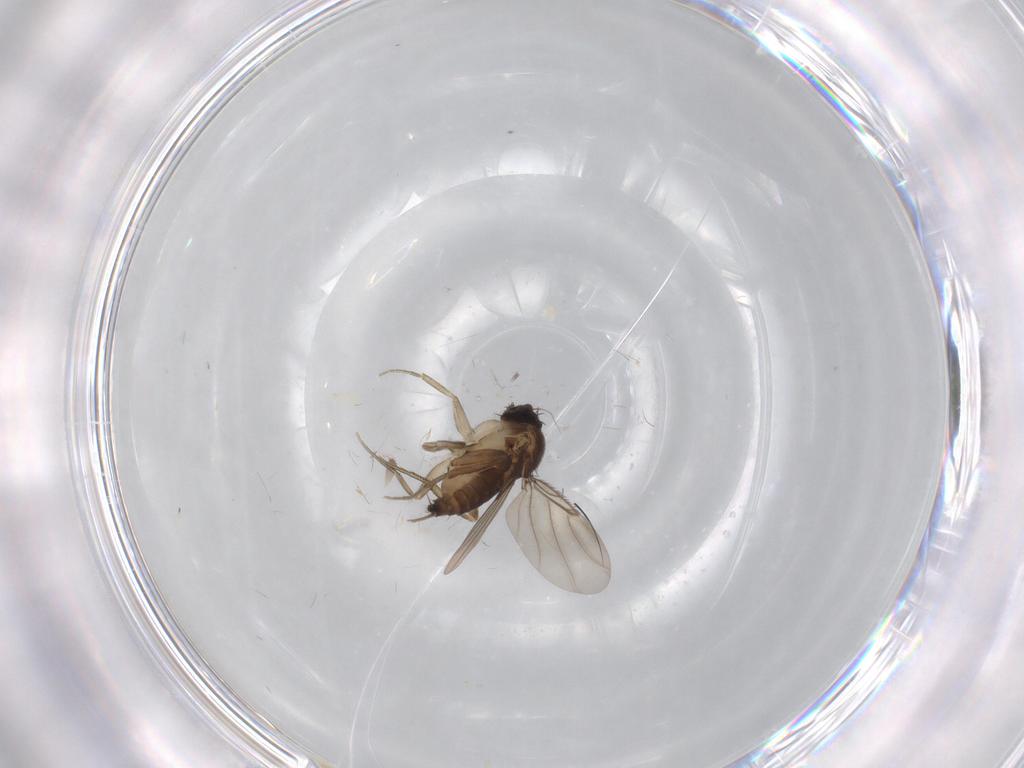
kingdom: Animalia
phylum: Arthropoda
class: Insecta
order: Diptera
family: Phoridae
